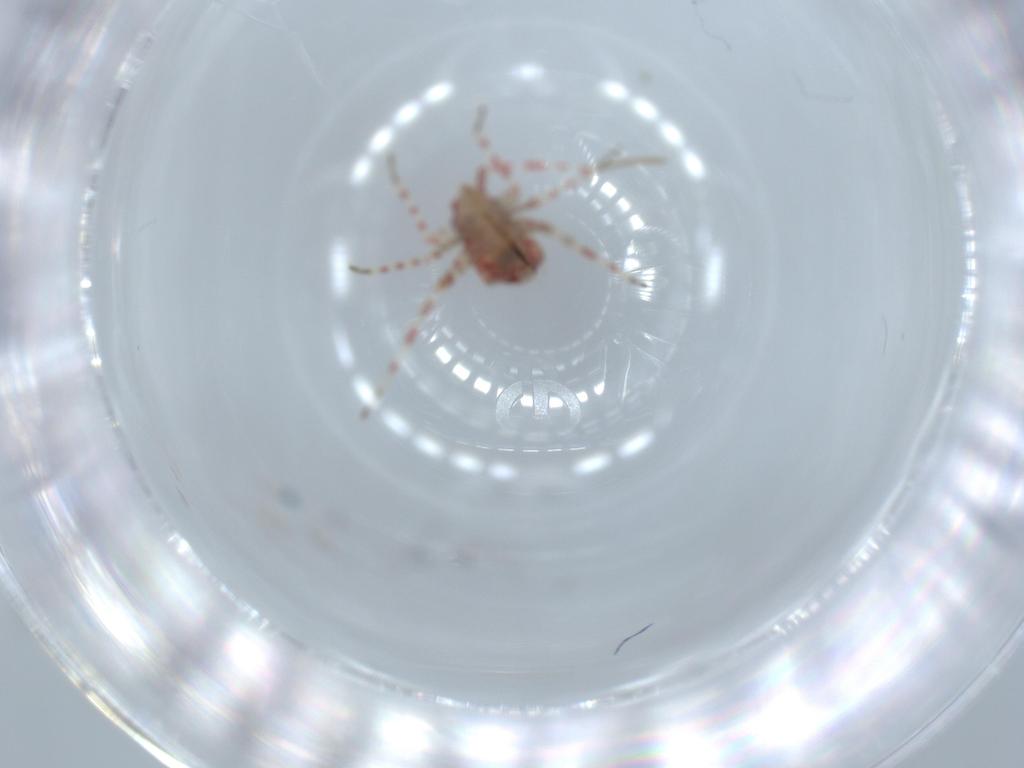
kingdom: Animalia
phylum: Arthropoda
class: Insecta
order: Hemiptera
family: Miridae
